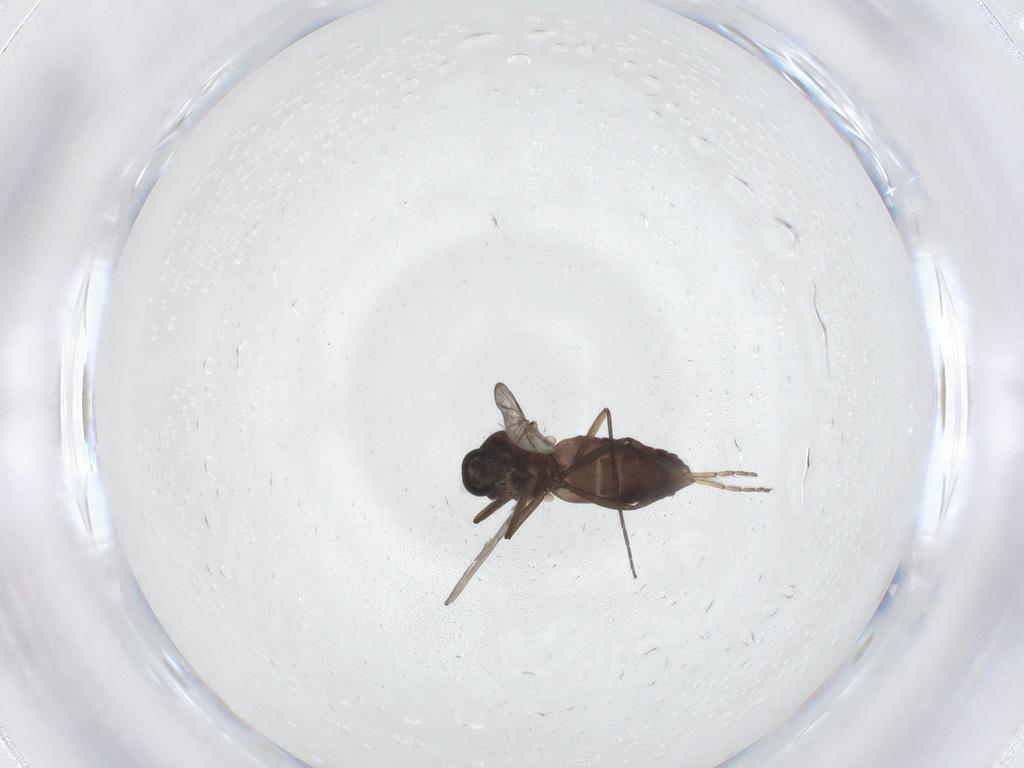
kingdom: Animalia
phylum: Arthropoda
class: Insecta
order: Diptera
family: Ceratopogonidae
